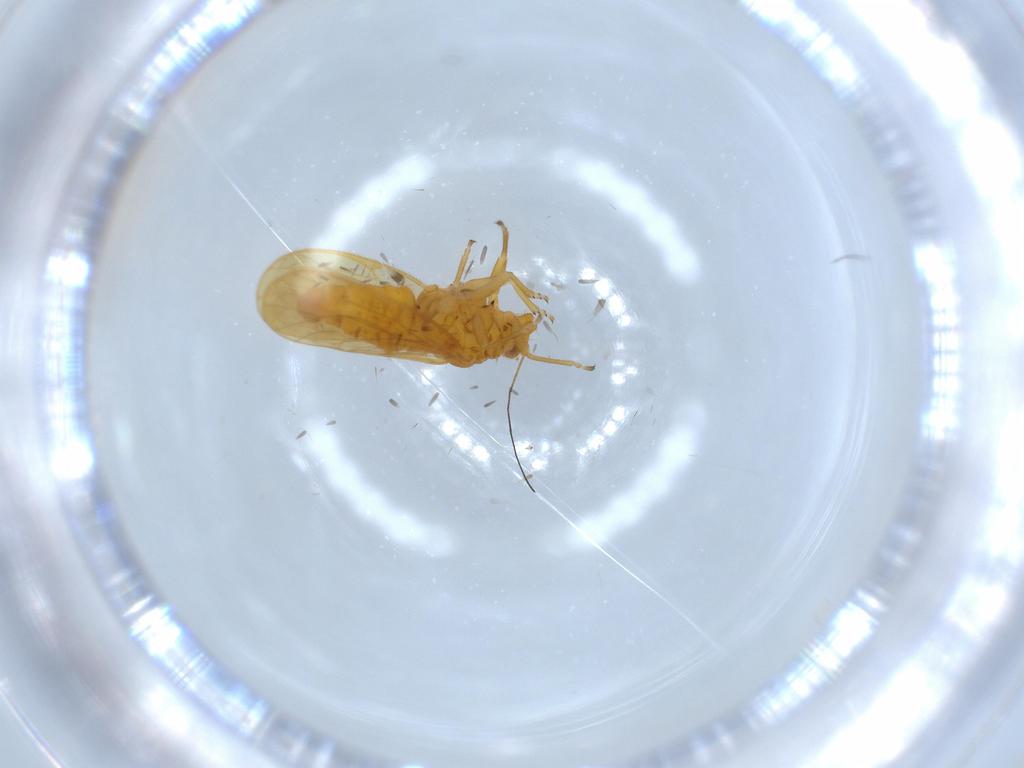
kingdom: Animalia
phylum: Arthropoda
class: Insecta
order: Hemiptera
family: Psyllidae
